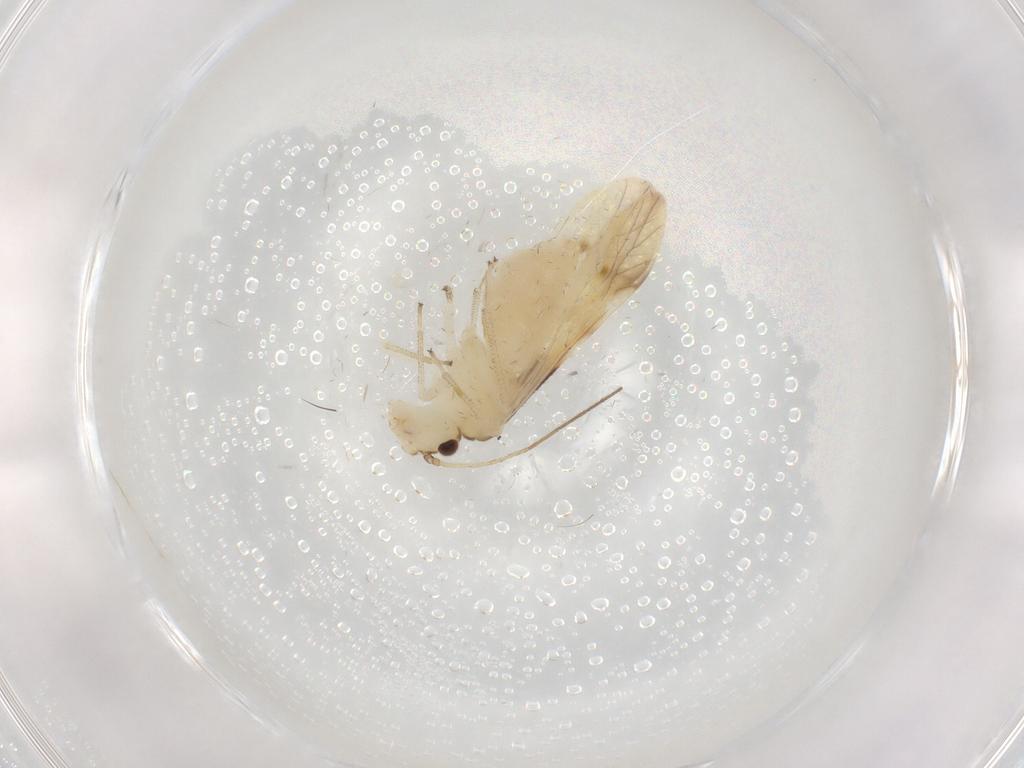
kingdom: Animalia
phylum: Arthropoda
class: Insecta
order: Psocodea
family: Caeciliusidae
